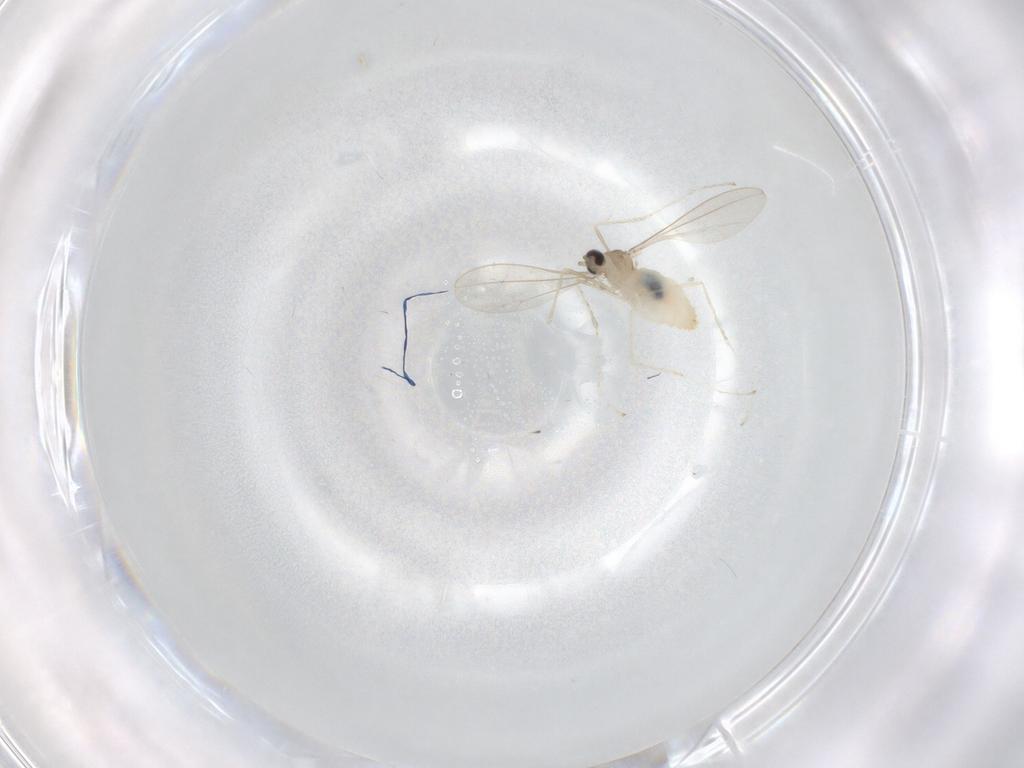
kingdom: Animalia
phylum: Arthropoda
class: Insecta
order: Diptera
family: Cecidomyiidae
